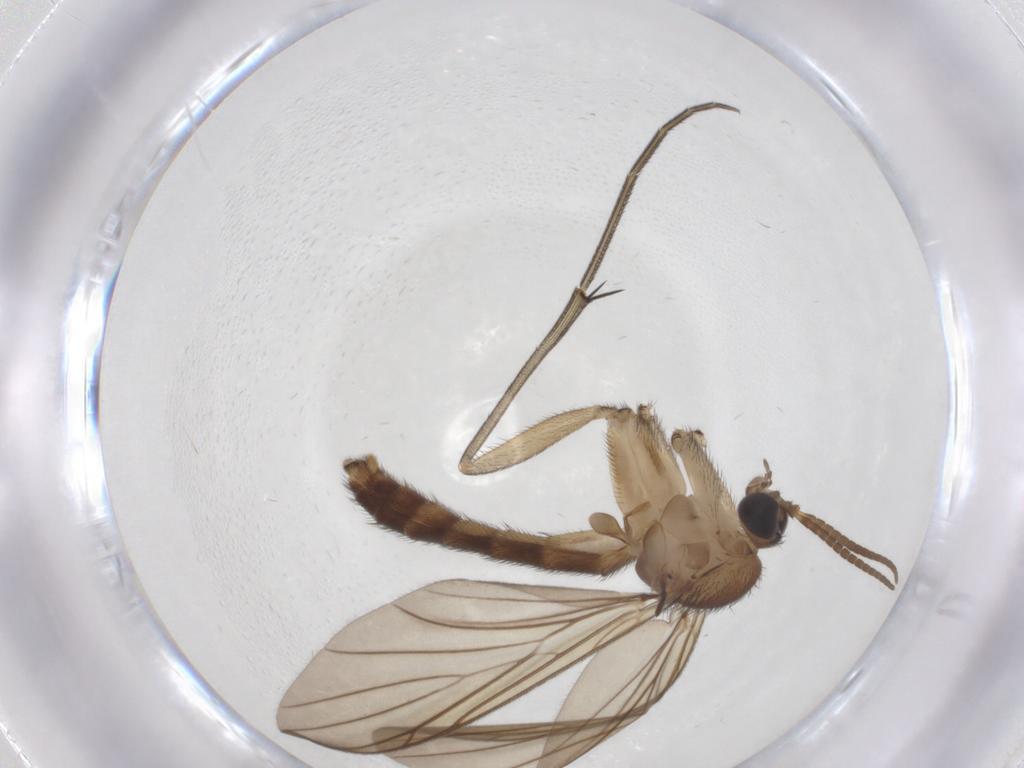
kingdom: Animalia
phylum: Arthropoda
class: Insecta
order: Diptera
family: Keroplatidae
